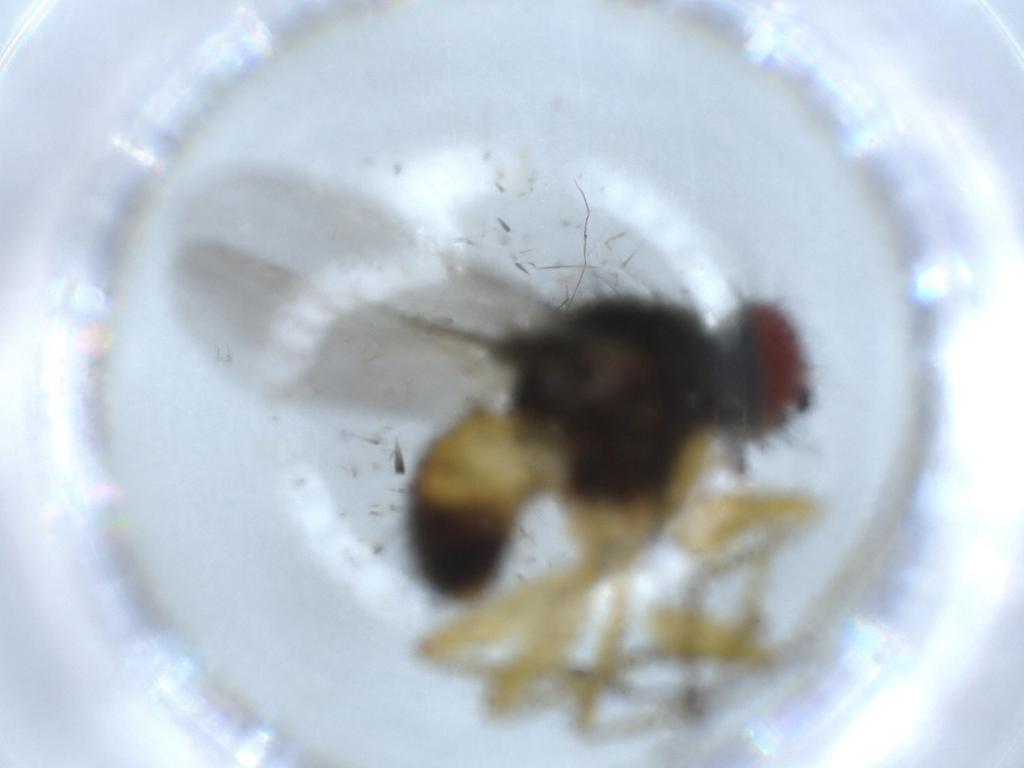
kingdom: Animalia
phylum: Arthropoda
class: Insecta
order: Diptera
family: Muscidae
